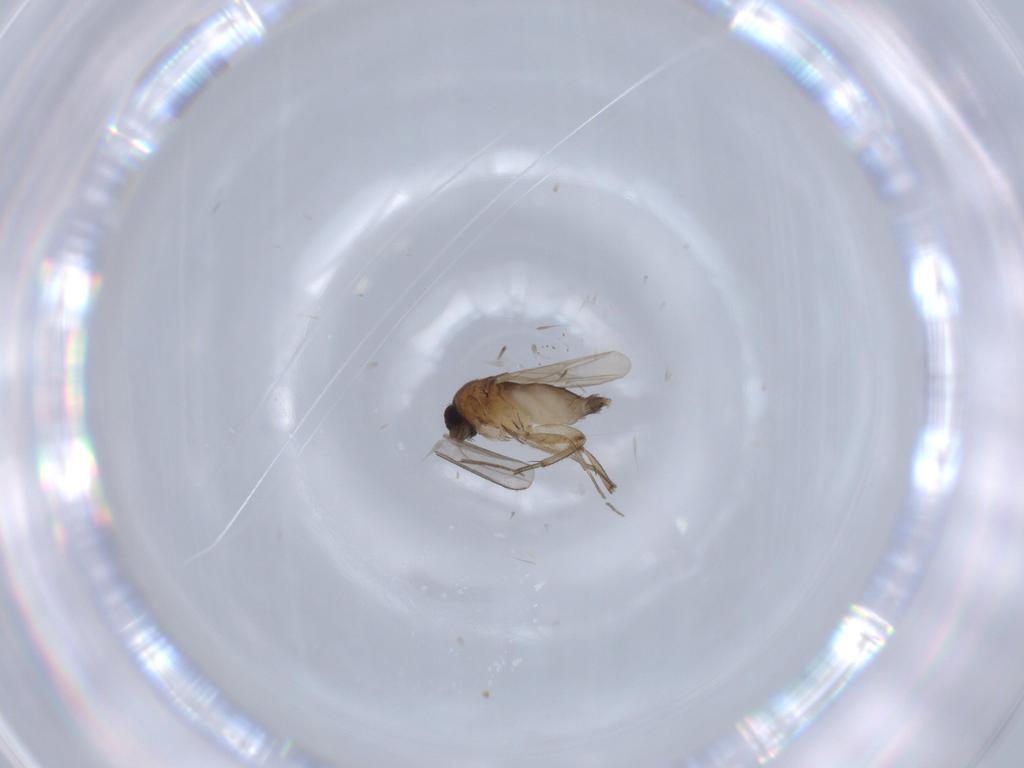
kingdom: Animalia
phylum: Arthropoda
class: Insecta
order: Diptera
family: Phoridae
